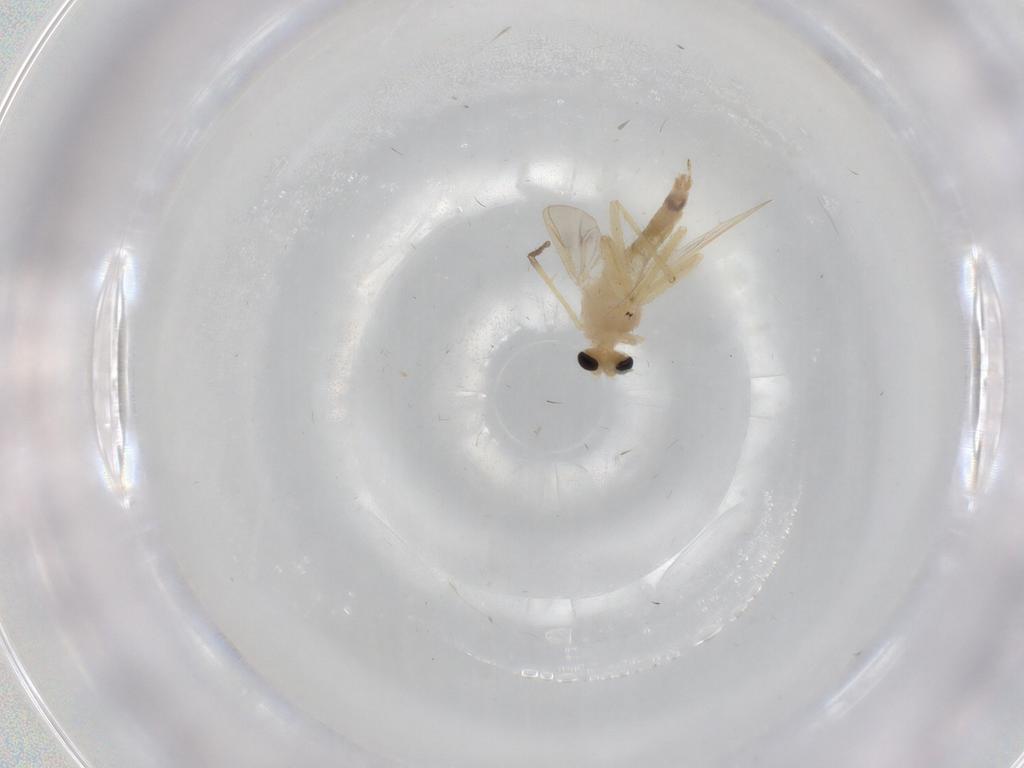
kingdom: Animalia
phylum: Arthropoda
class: Insecta
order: Diptera
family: Chironomidae
